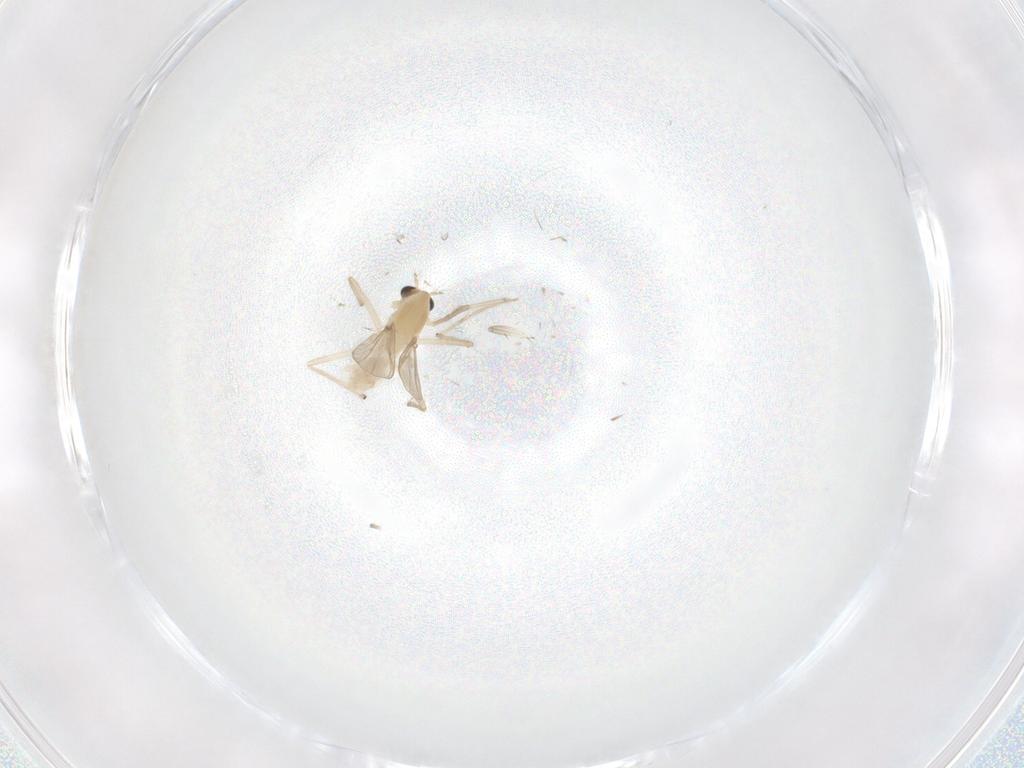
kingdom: Animalia
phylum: Arthropoda
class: Insecta
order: Diptera
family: Chironomidae
